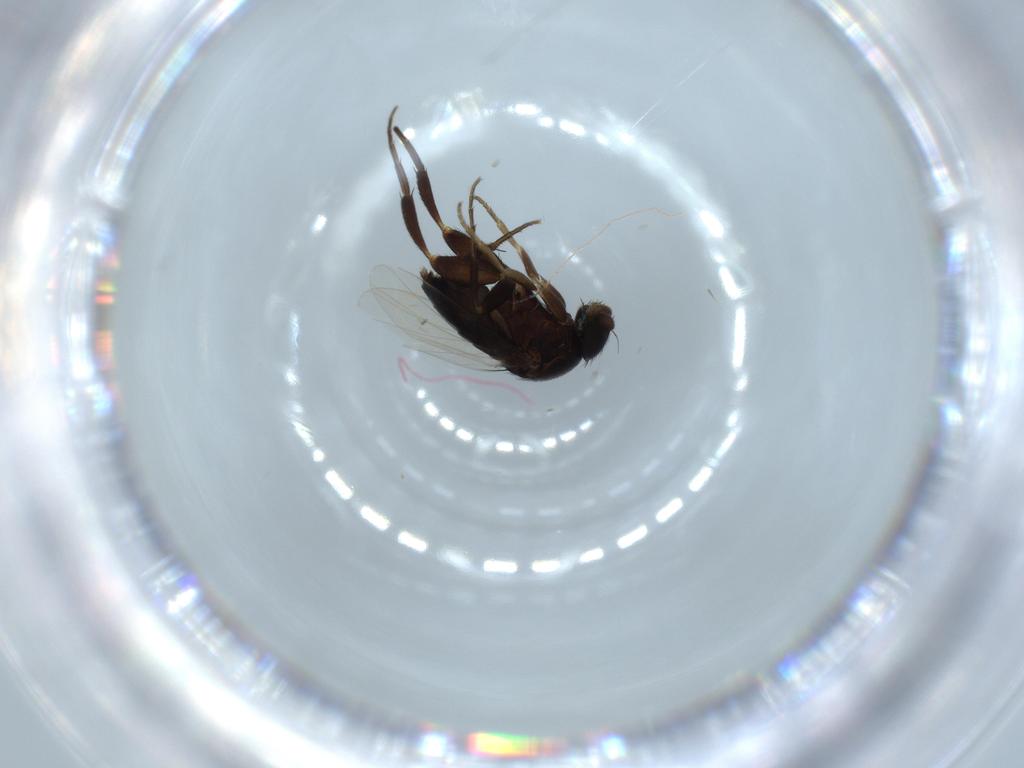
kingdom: Animalia
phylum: Arthropoda
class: Insecta
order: Diptera
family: Phoridae
